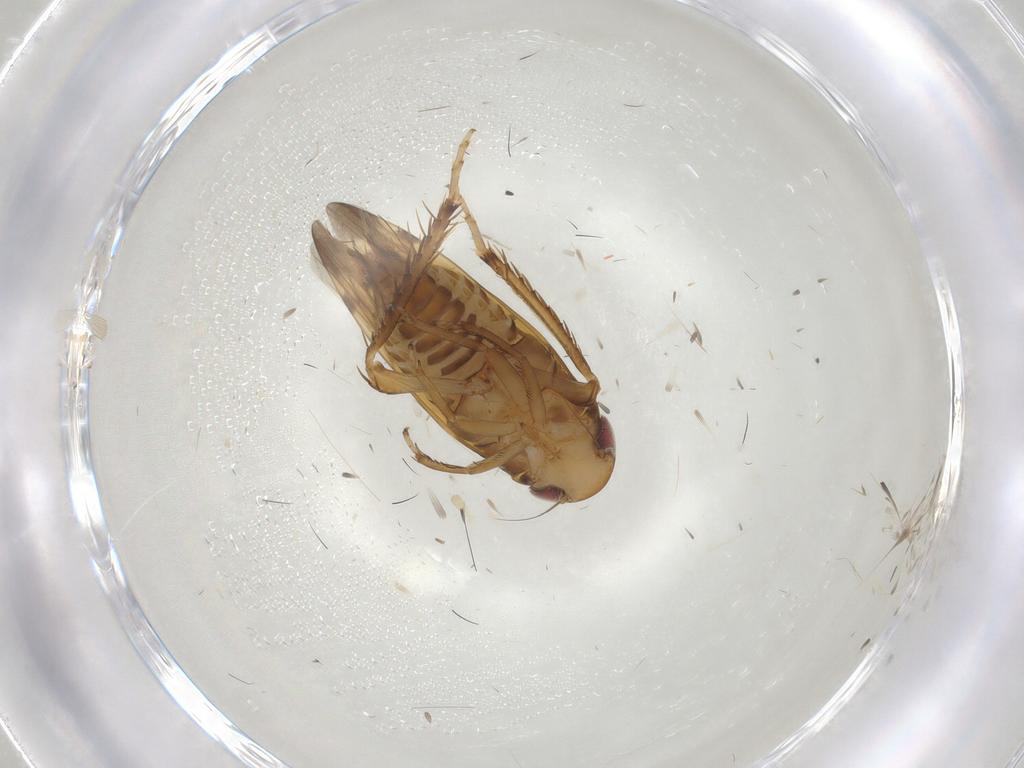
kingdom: Animalia
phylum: Arthropoda
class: Insecta
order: Hemiptera
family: Cicadellidae
